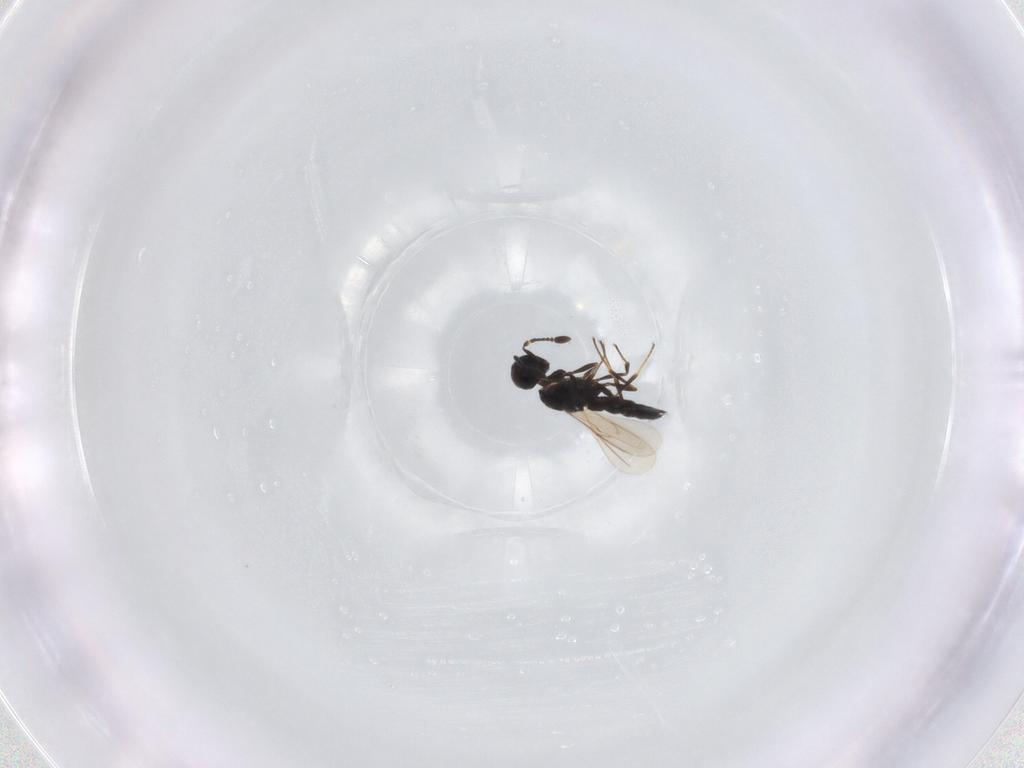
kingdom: Animalia
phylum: Arthropoda
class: Insecta
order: Hymenoptera
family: Scelionidae
